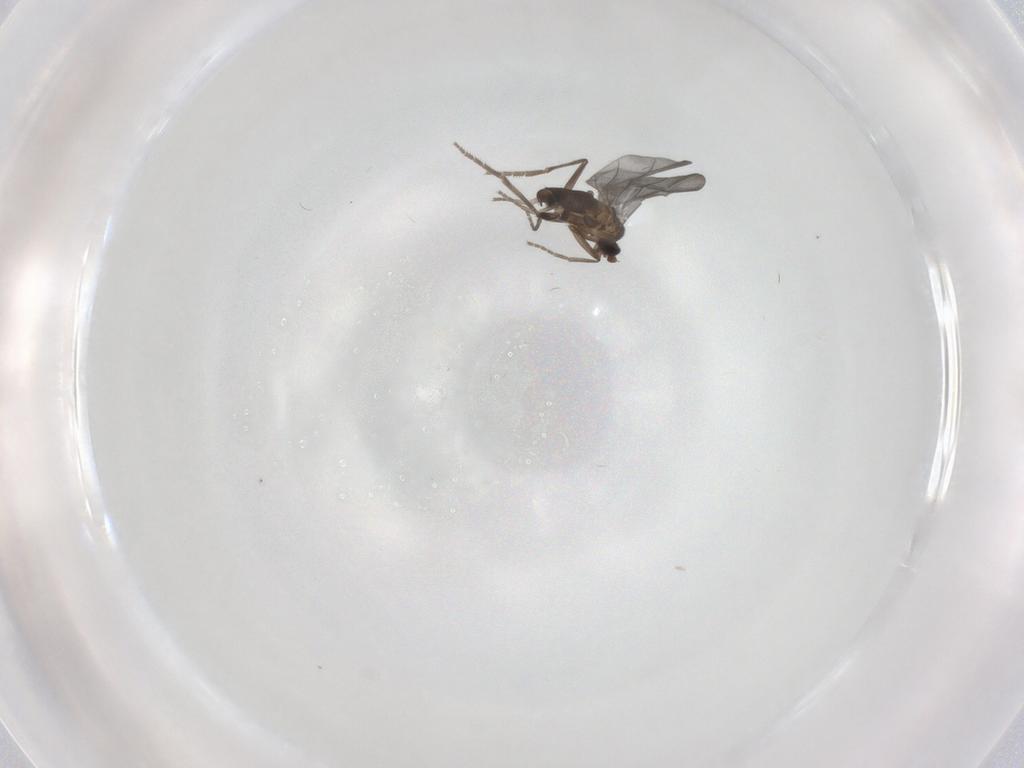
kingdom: Animalia
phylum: Arthropoda
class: Insecta
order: Diptera
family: Phoridae
